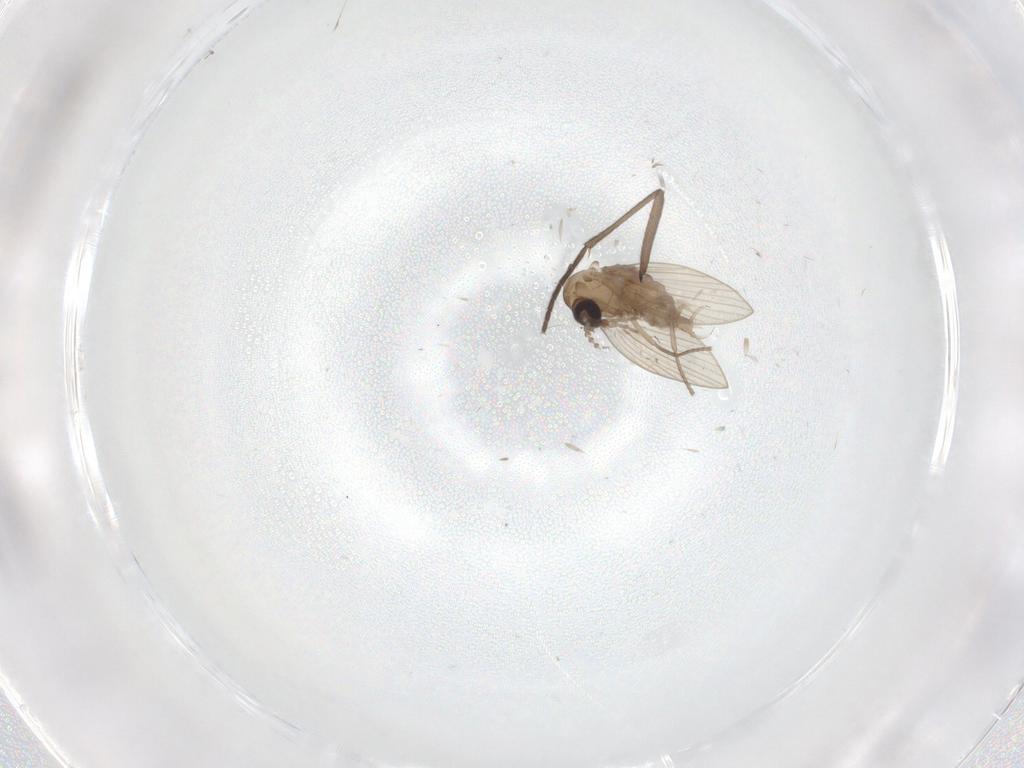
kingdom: Animalia
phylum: Arthropoda
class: Insecta
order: Diptera
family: Psychodidae
